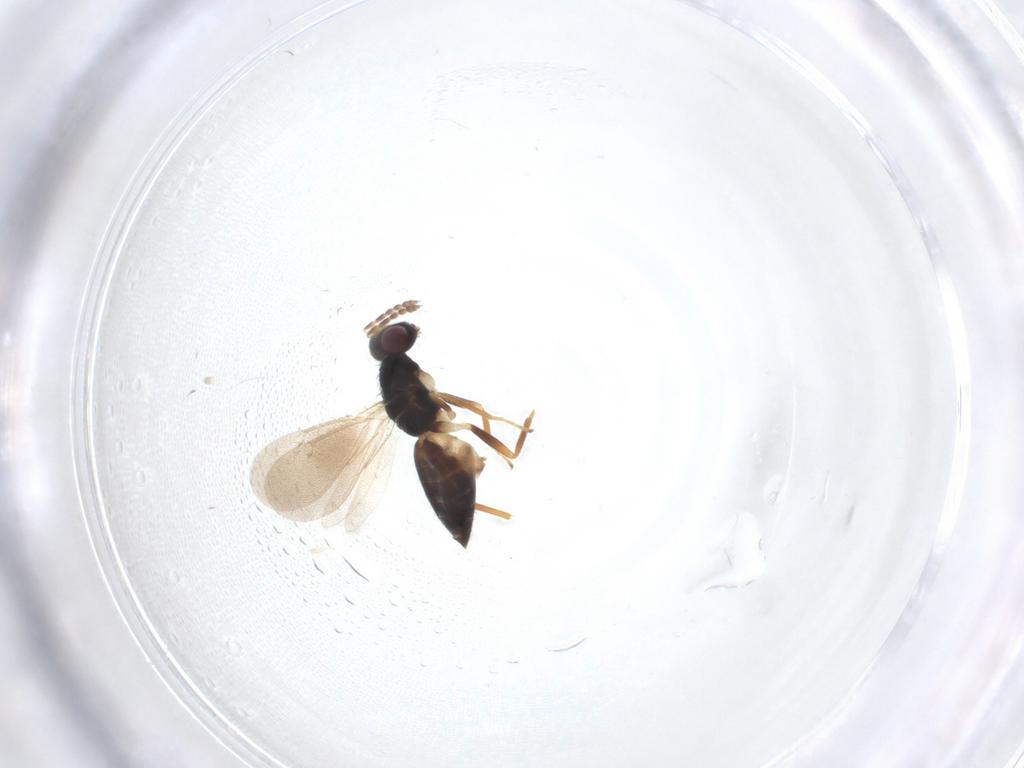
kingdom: Animalia
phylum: Arthropoda
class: Insecta
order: Hymenoptera
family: Eulophidae
